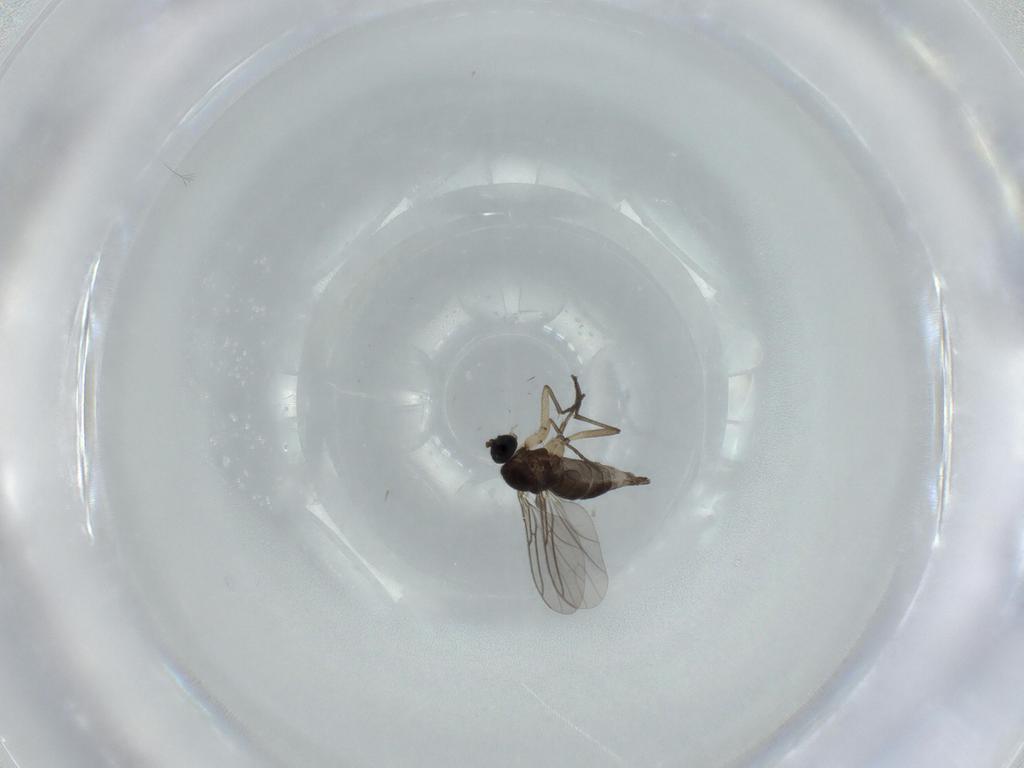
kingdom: Animalia
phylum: Arthropoda
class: Insecta
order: Diptera
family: Sciaridae
